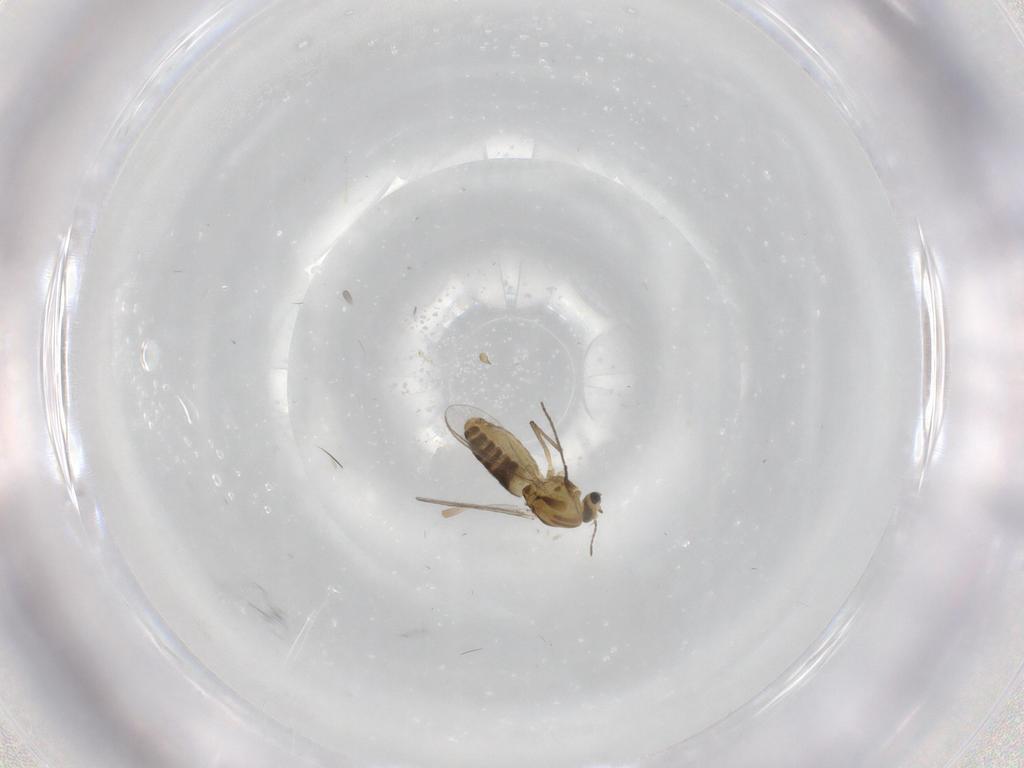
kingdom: Animalia
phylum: Arthropoda
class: Insecta
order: Diptera
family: Chironomidae
